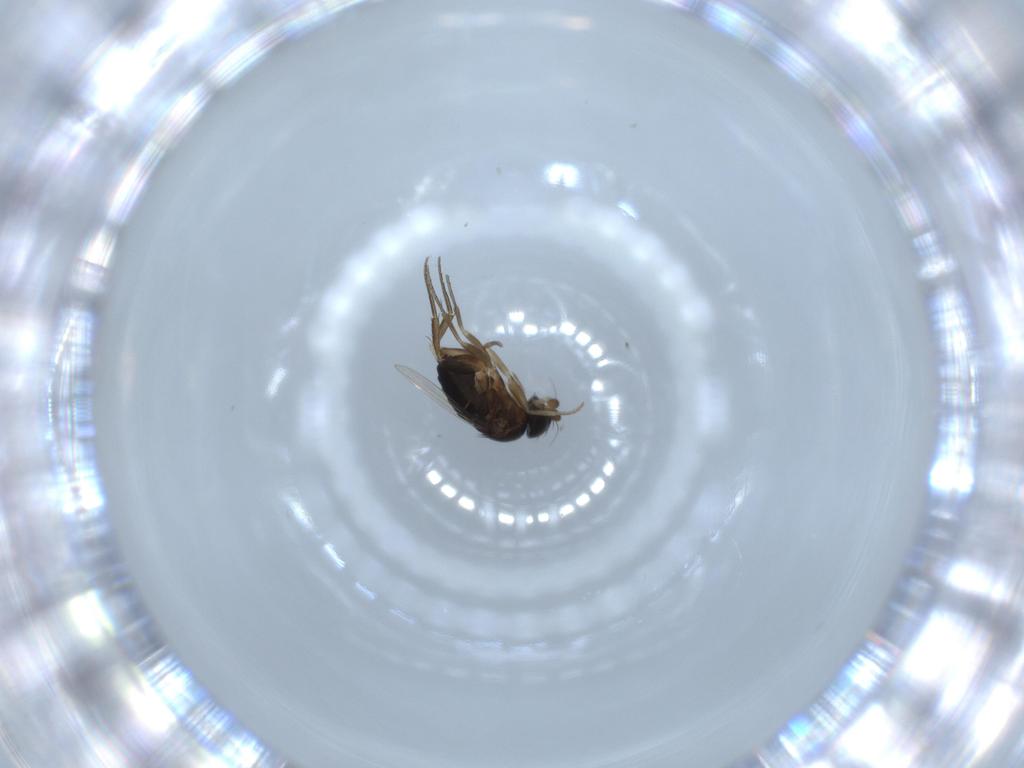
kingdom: Animalia
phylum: Arthropoda
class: Insecta
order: Diptera
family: Phoridae
